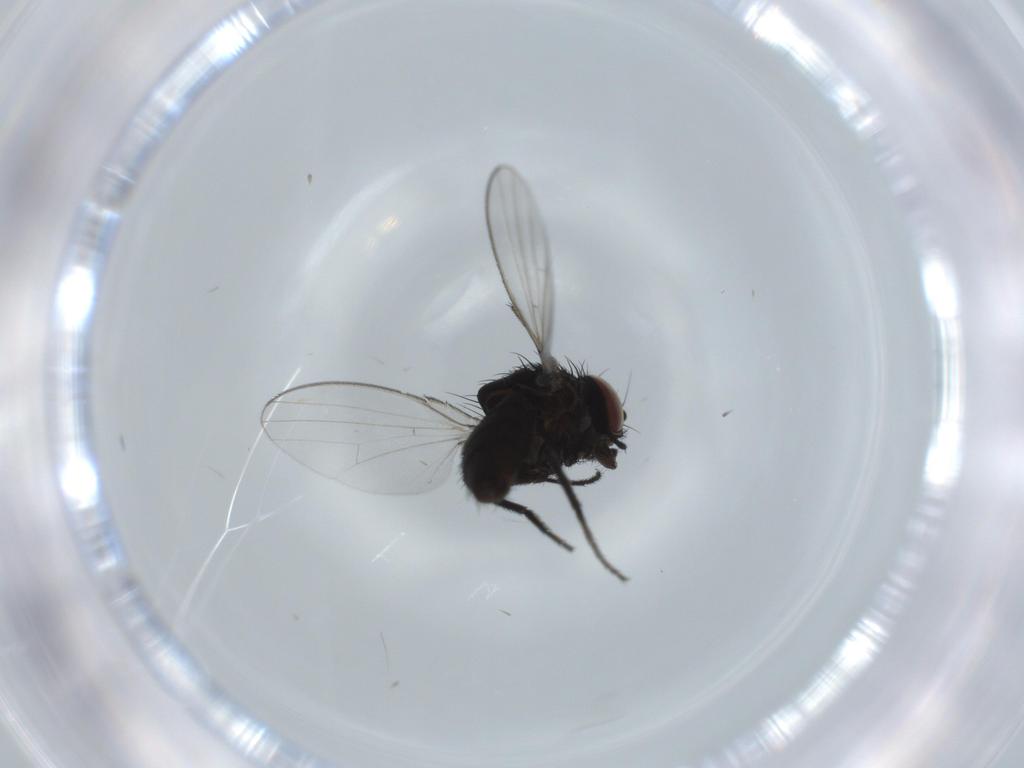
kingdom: Animalia
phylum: Arthropoda
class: Insecta
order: Diptera
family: Milichiidae
